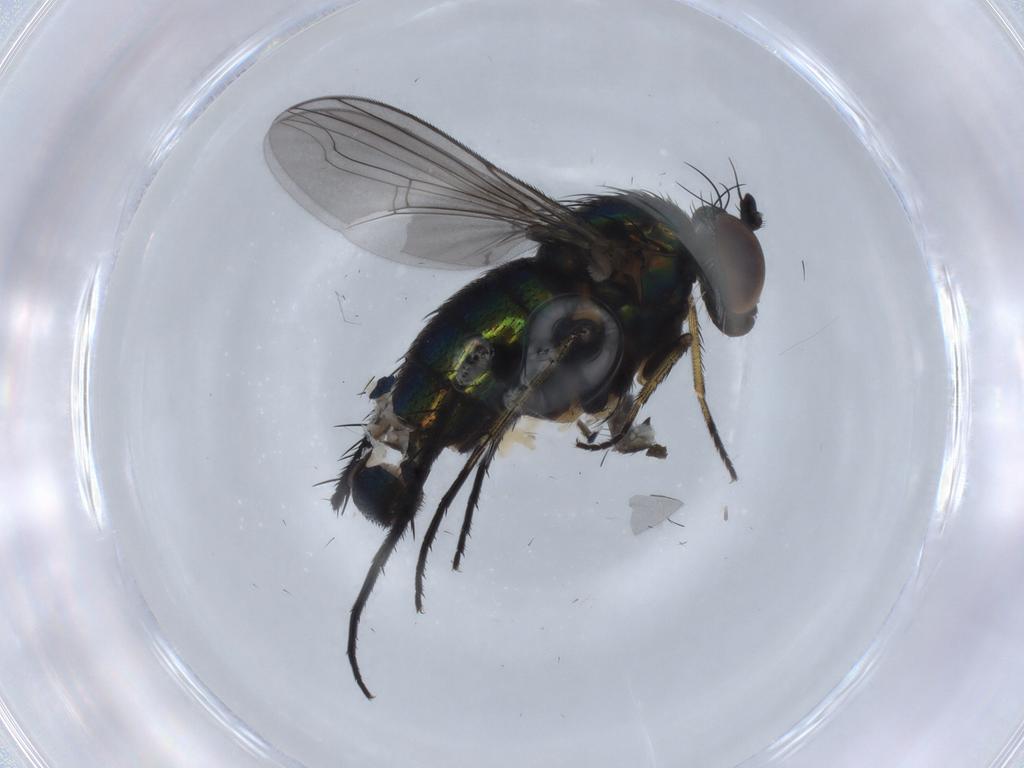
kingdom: Animalia
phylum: Arthropoda
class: Insecta
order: Diptera
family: Dolichopodidae
